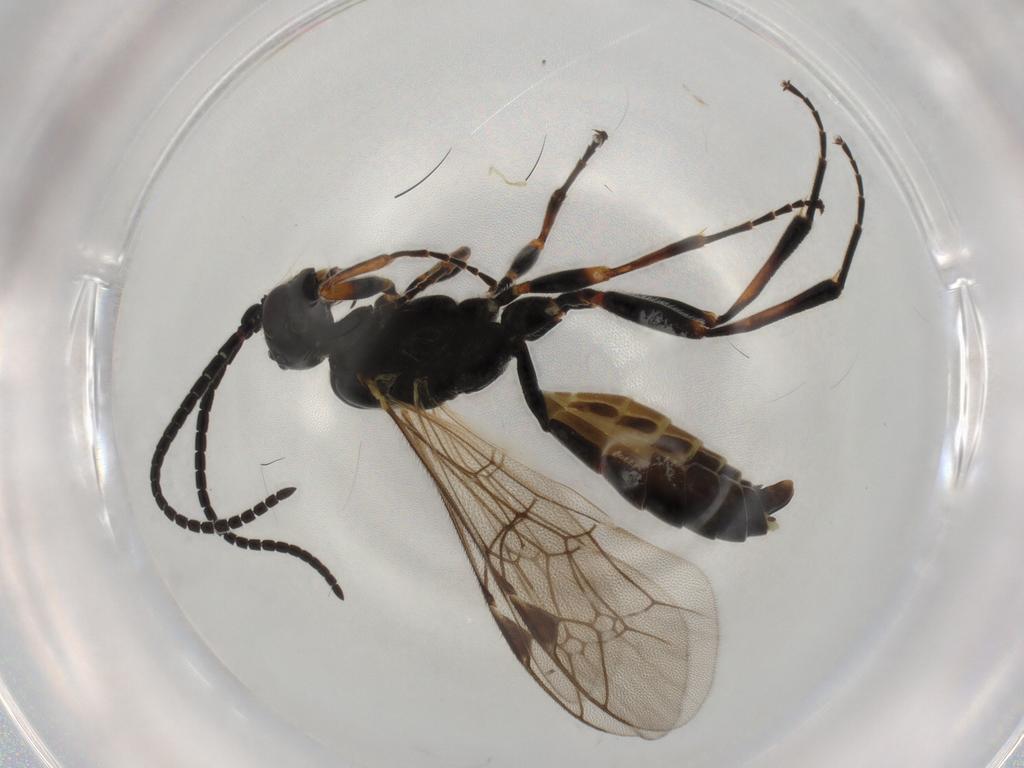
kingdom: Animalia
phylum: Arthropoda
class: Insecta
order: Hymenoptera
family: Ichneumonidae
